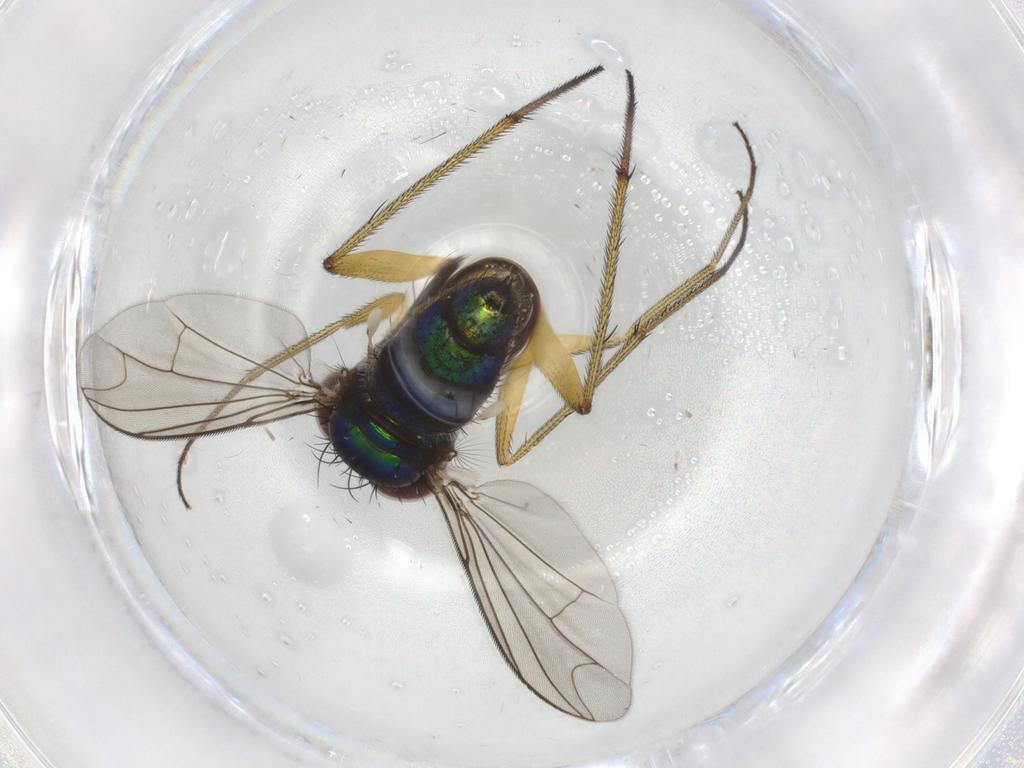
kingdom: Animalia
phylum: Arthropoda
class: Insecta
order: Diptera
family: Dolichopodidae
